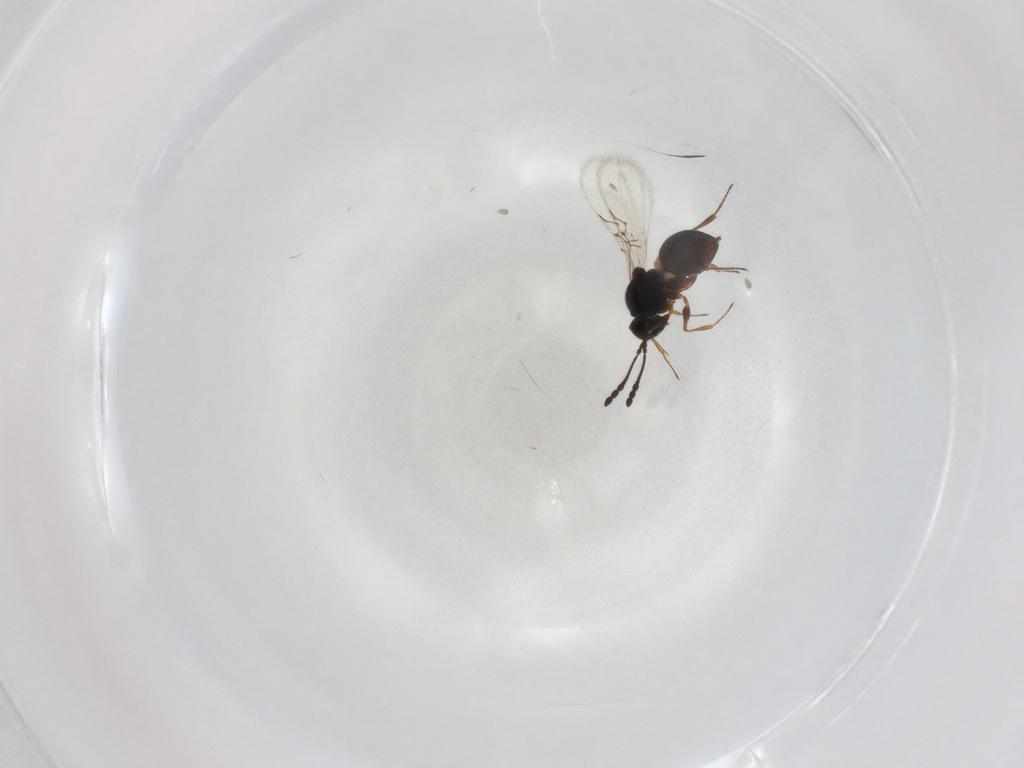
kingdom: Animalia
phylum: Arthropoda
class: Insecta
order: Hymenoptera
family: Figitidae
